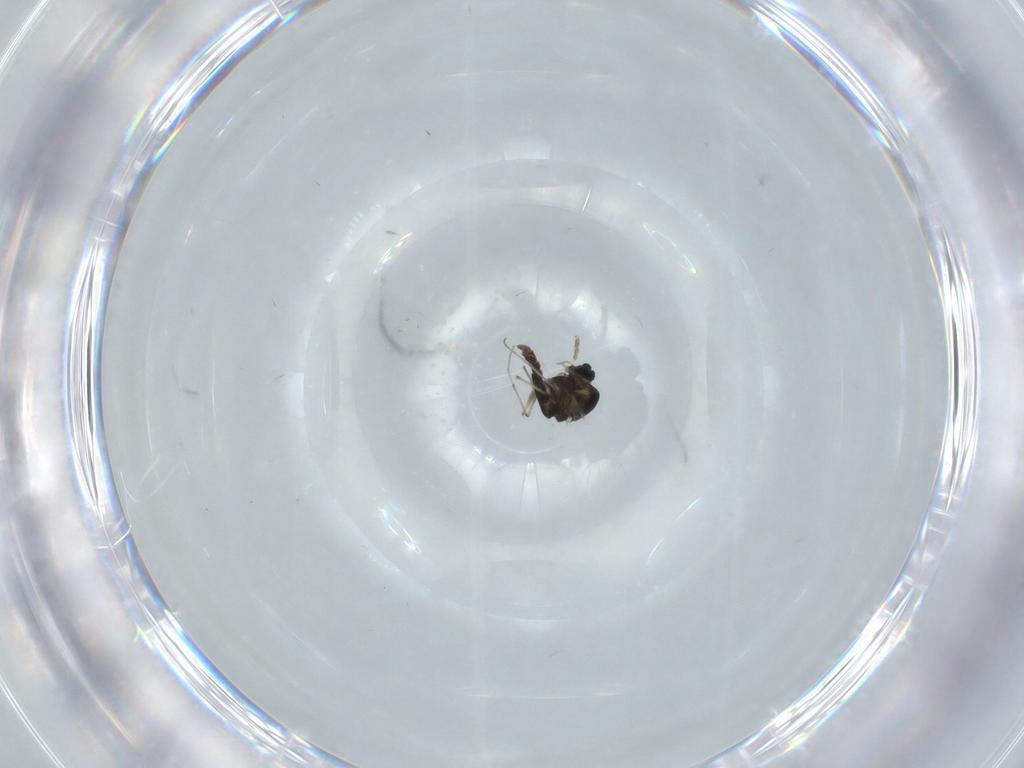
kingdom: Animalia
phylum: Arthropoda
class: Insecta
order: Diptera
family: Chironomidae
